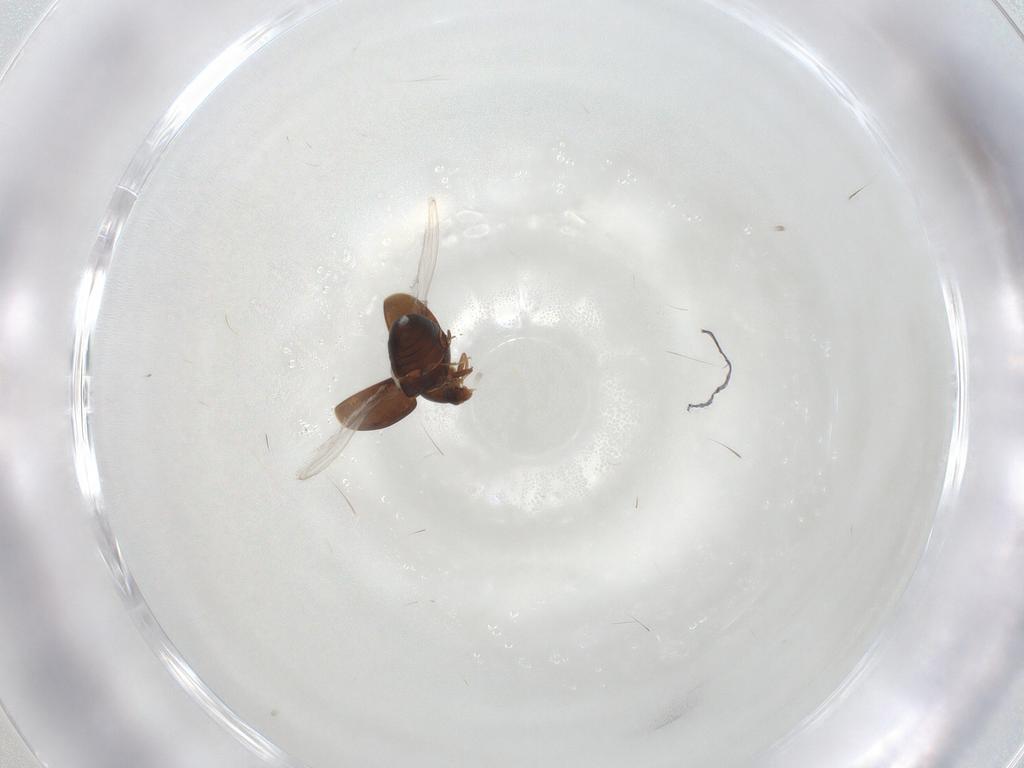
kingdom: Animalia
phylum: Arthropoda
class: Insecta
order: Coleoptera
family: Corylophidae
